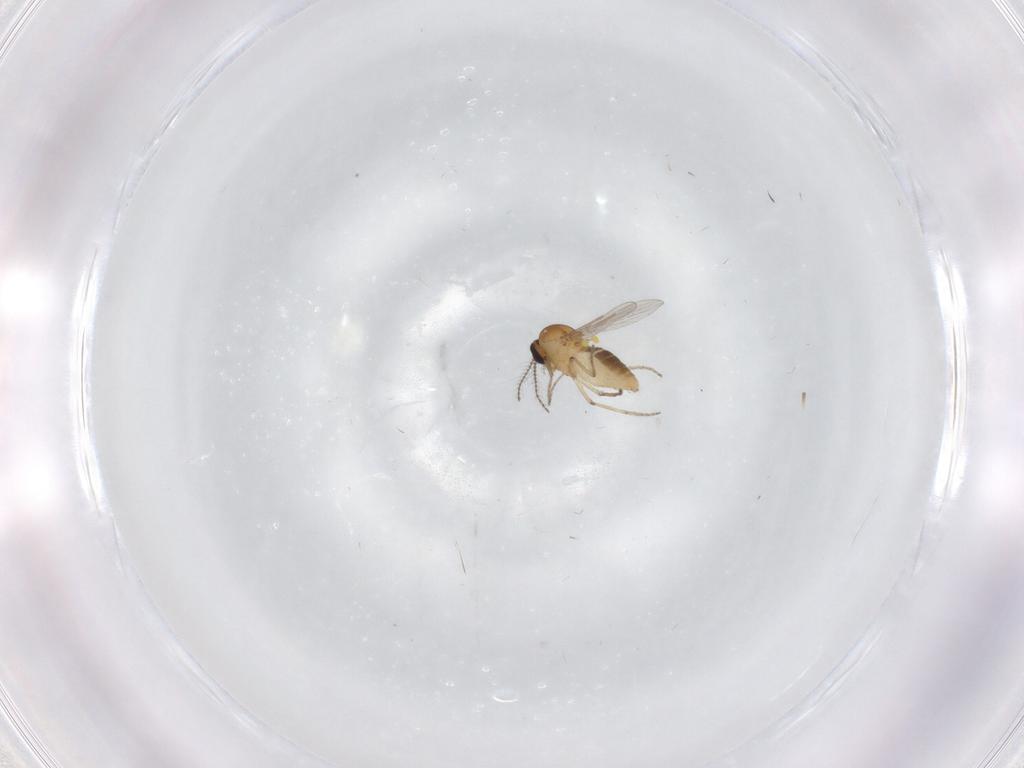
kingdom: Animalia
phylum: Arthropoda
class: Insecta
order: Diptera
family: Ceratopogonidae
